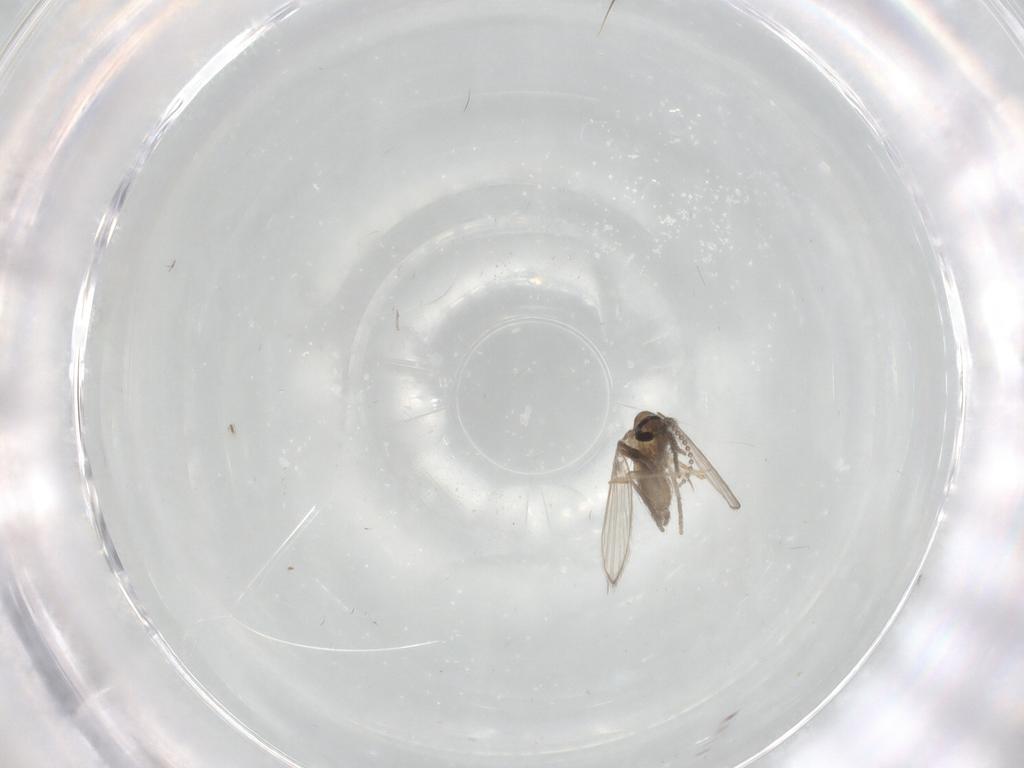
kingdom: Animalia
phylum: Arthropoda
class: Insecta
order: Diptera
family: Psychodidae
